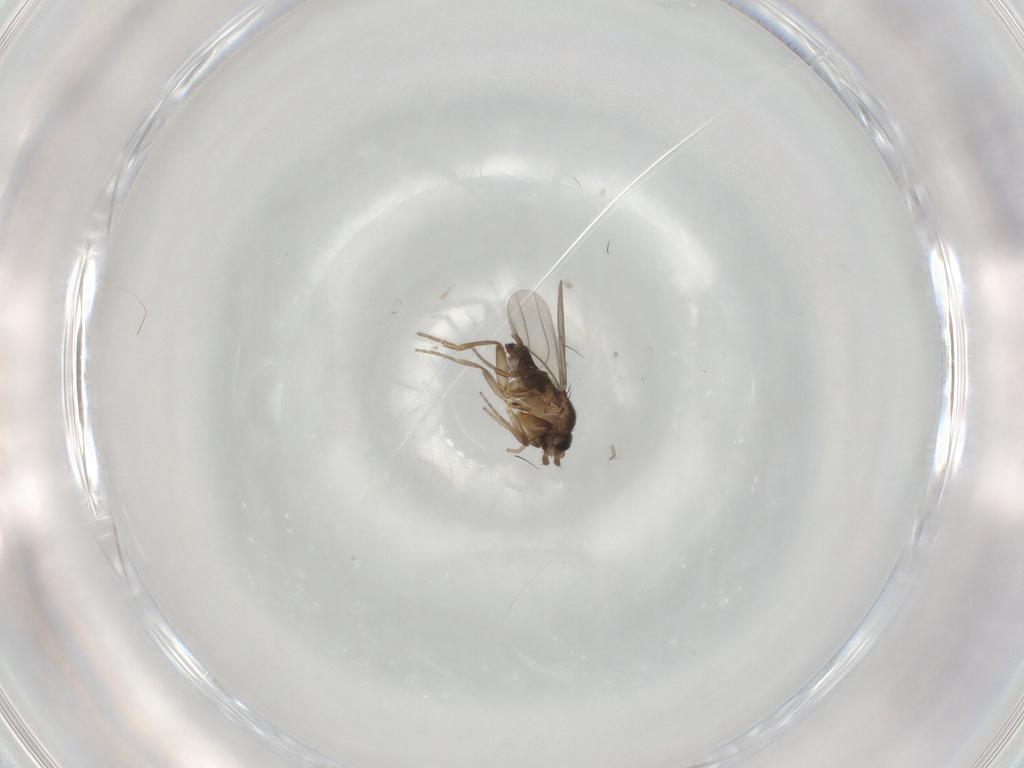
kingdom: Animalia
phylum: Arthropoda
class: Insecta
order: Diptera
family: Phoridae
